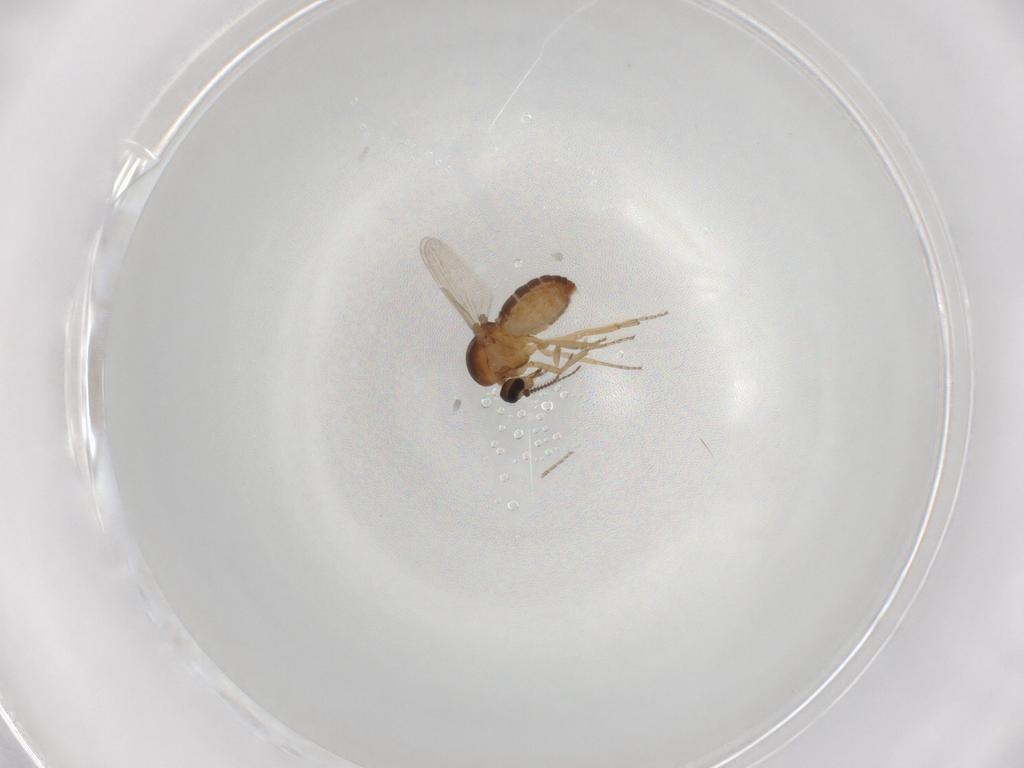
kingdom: Animalia
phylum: Arthropoda
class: Insecta
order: Diptera
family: Ceratopogonidae
